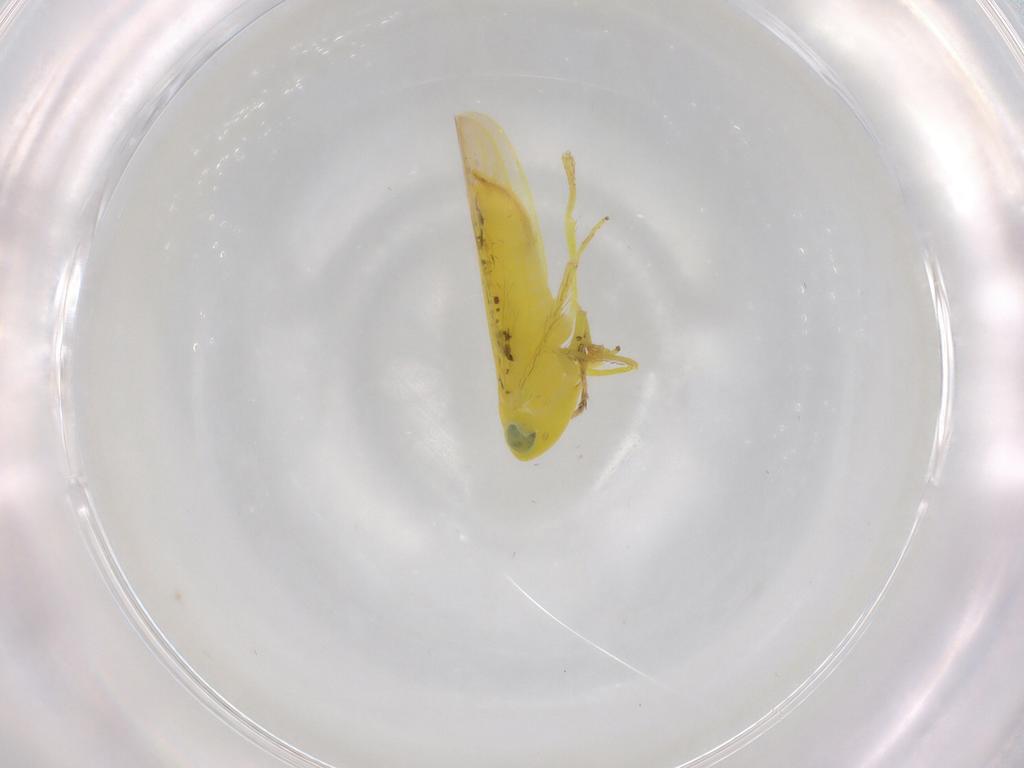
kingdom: Animalia
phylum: Arthropoda
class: Insecta
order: Hemiptera
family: Cicadellidae
